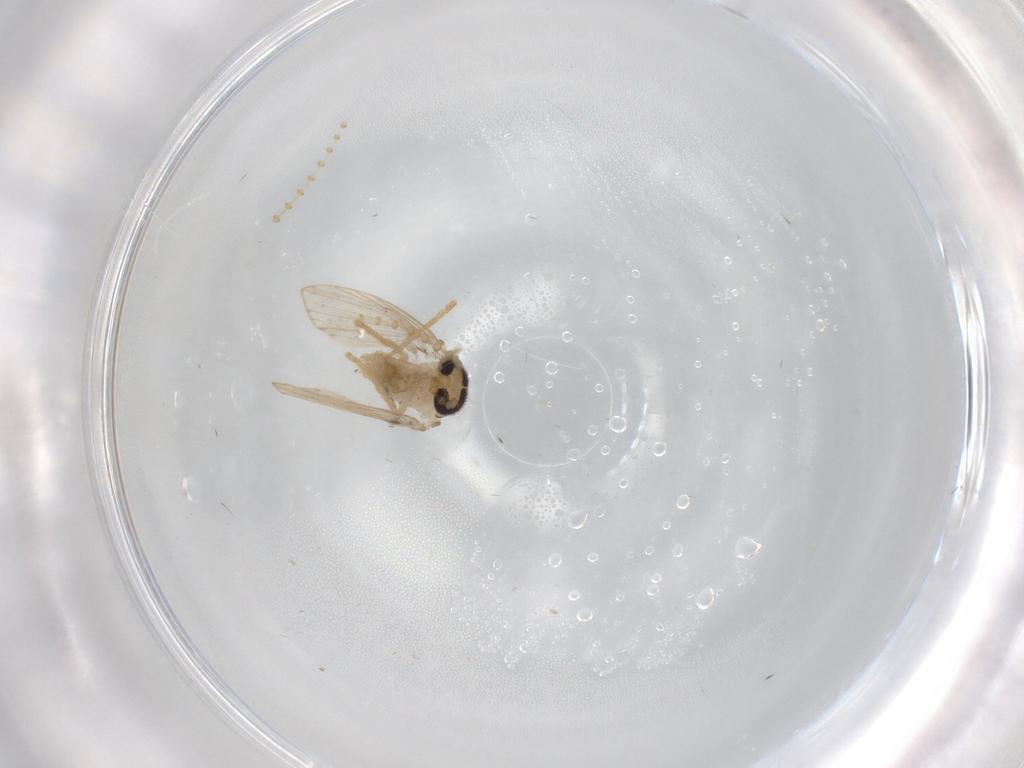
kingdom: Animalia
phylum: Arthropoda
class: Insecta
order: Diptera
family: Psychodidae
